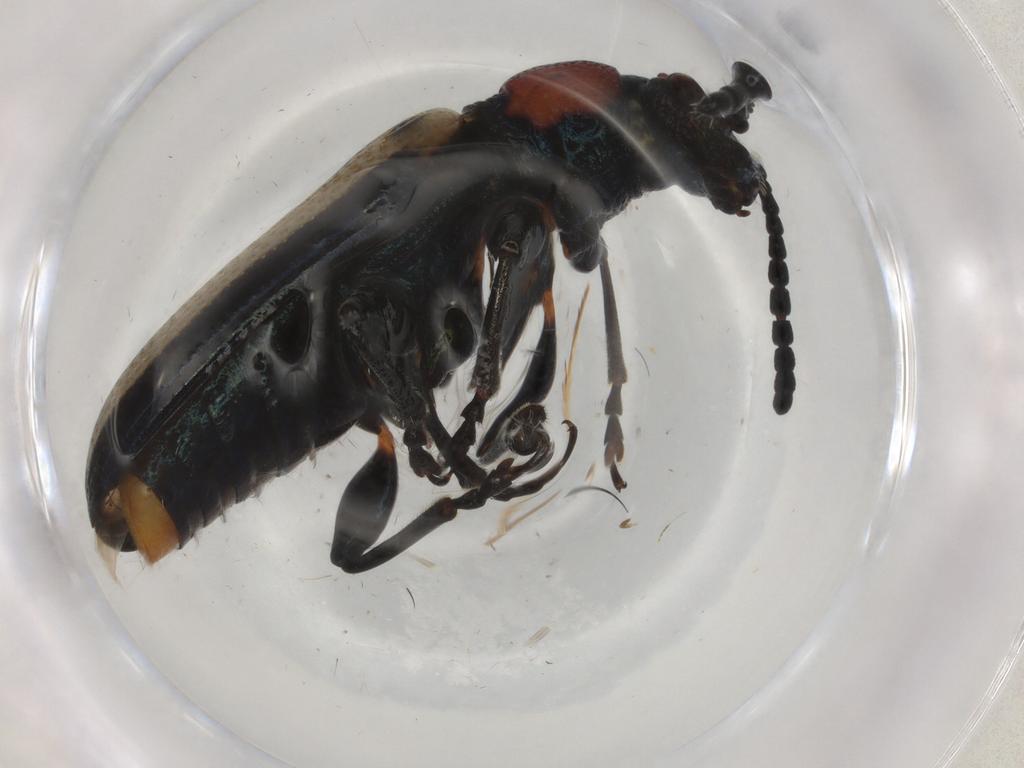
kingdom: Animalia
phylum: Arthropoda
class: Insecta
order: Coleoptera
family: Cerambycidae
